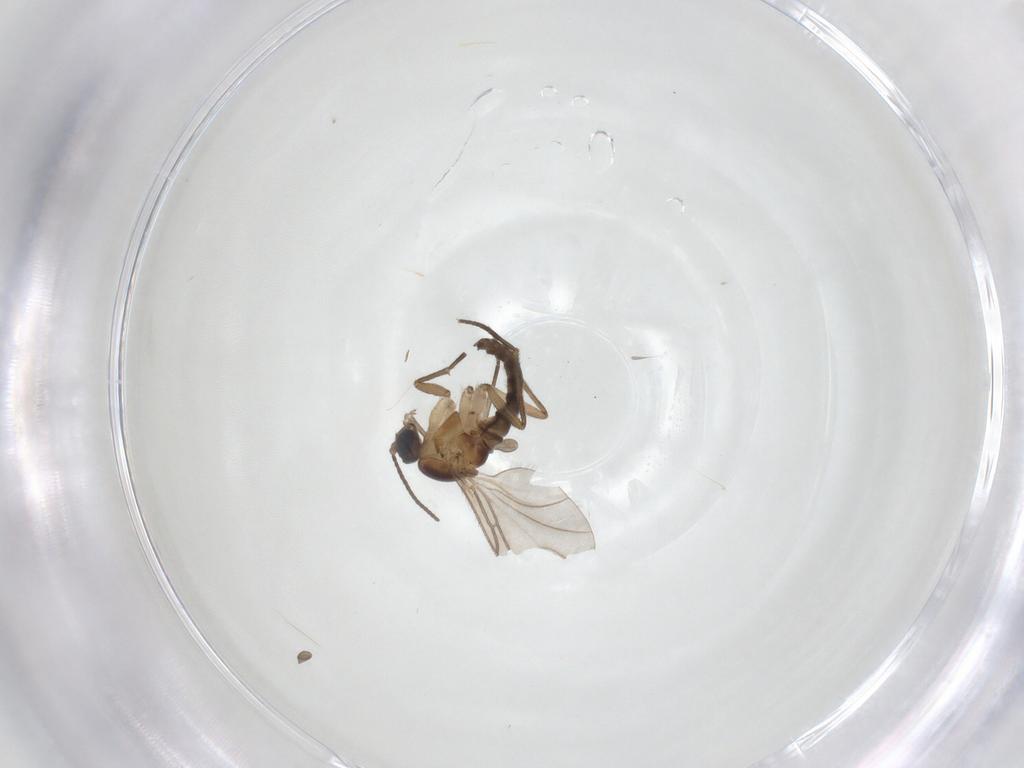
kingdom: Animalia
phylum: Arthropoda
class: Insecta
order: Diptera
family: Sciaridae
